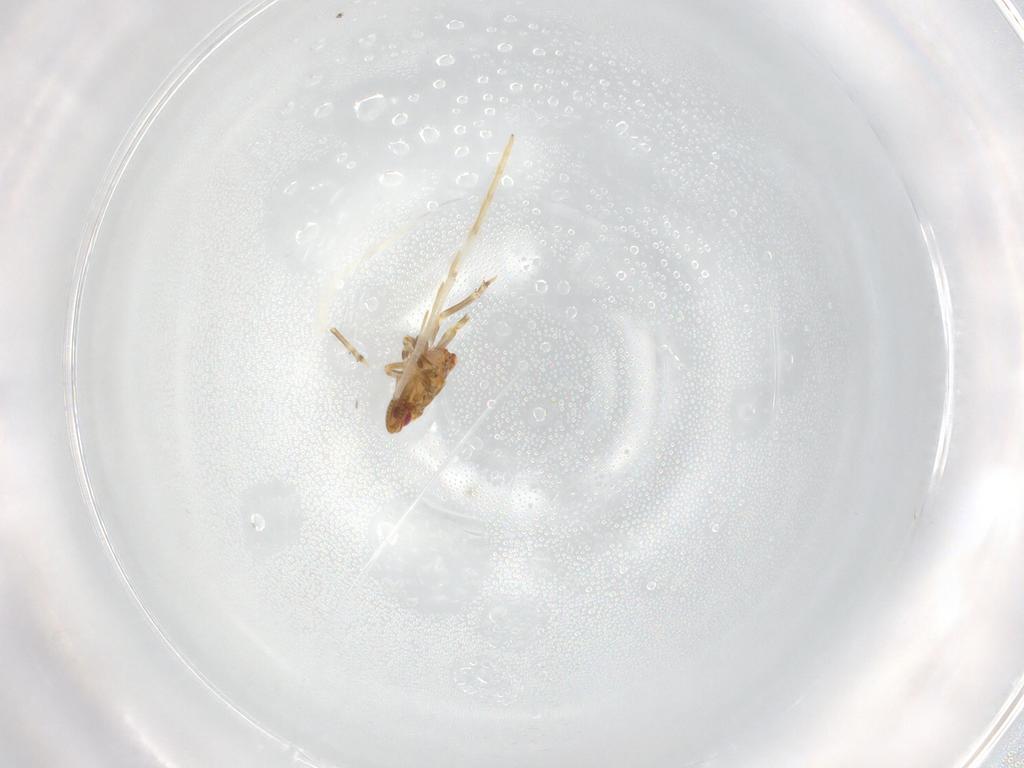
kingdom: Animalia
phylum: Arthropoda
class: Insecta
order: Hemiptera
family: Flatidae
